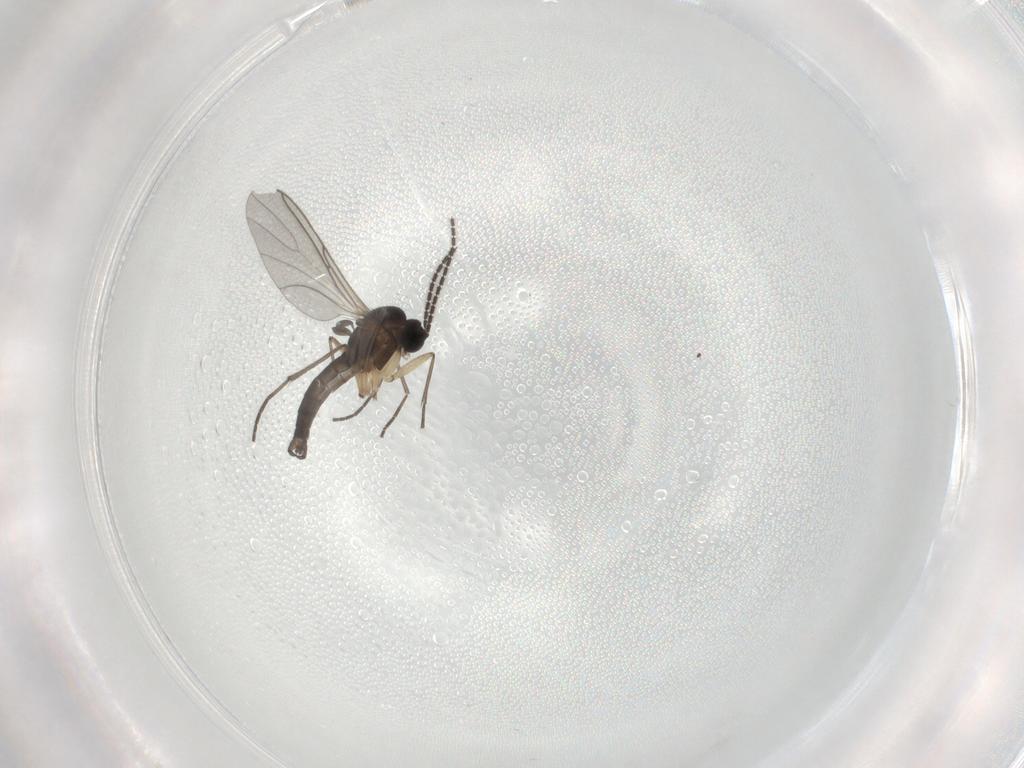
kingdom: Animalia
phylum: Arthropoda
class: Insecta
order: Diptera
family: Sciaridae
